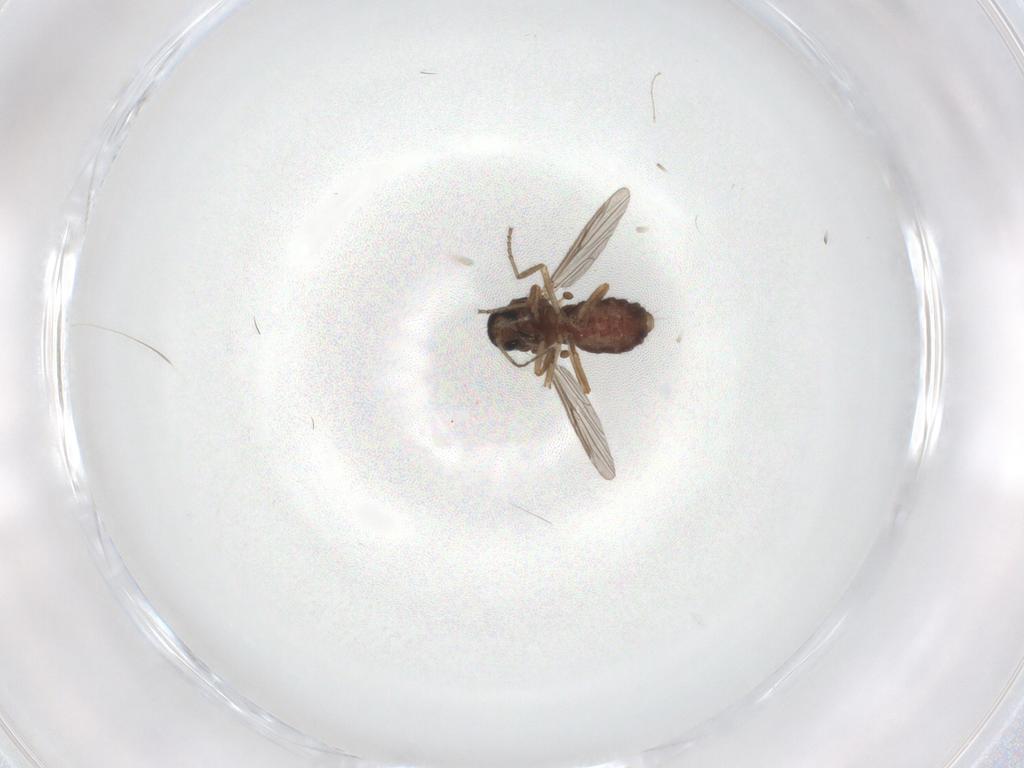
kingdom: Animalia
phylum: Arthropoda
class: Insecta
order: Diptera
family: Ceratopogonidae
